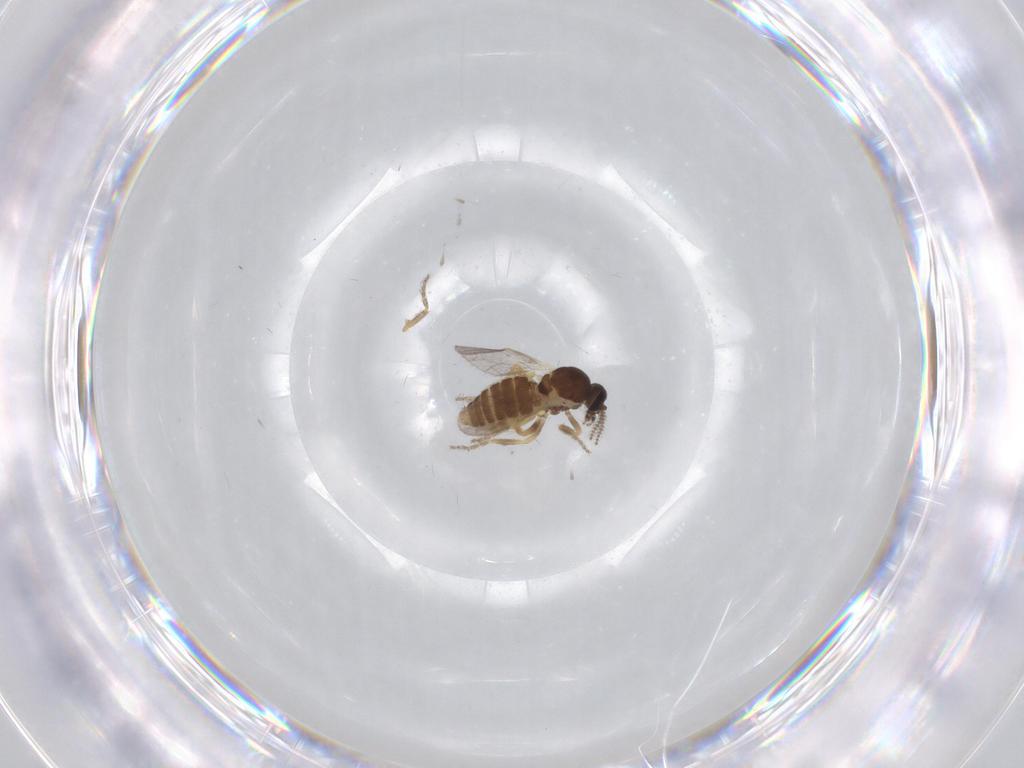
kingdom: Animalia
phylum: Arthropoda
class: Insecta
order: Diptera
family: Ceratopogonidae
